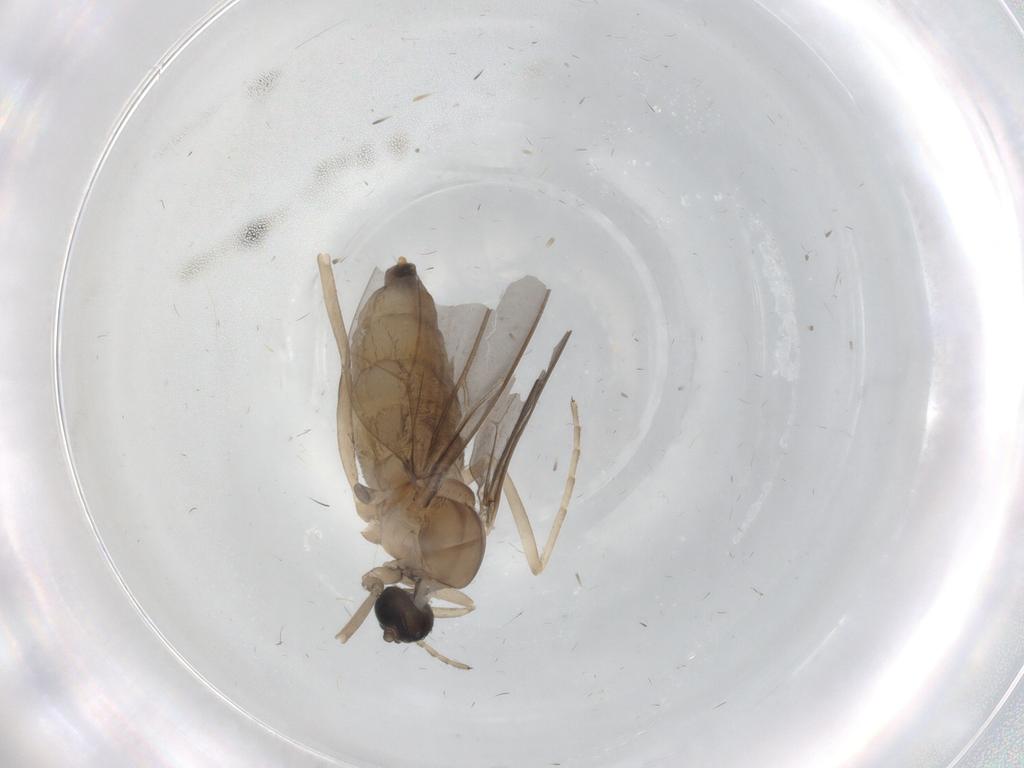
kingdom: Animalia
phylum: Arthropoda
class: Insecta
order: Diptera
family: Cecidomyiidae
